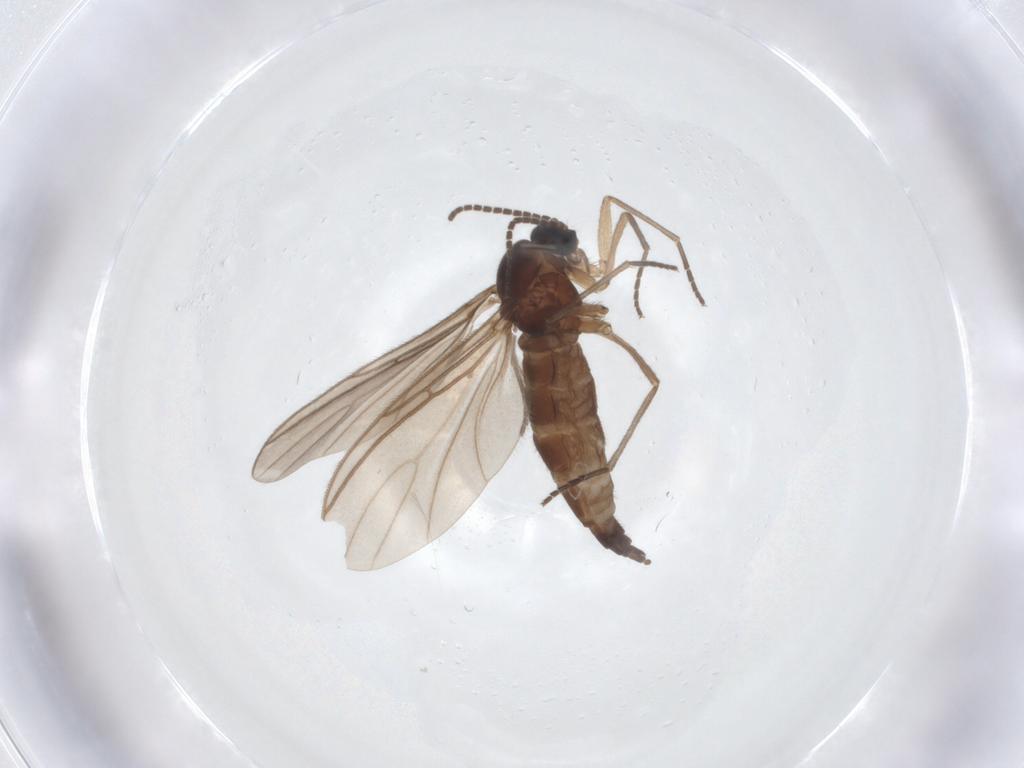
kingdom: Animalia
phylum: Arthropoda
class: Insecta
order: Diptera
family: Sciaridae
